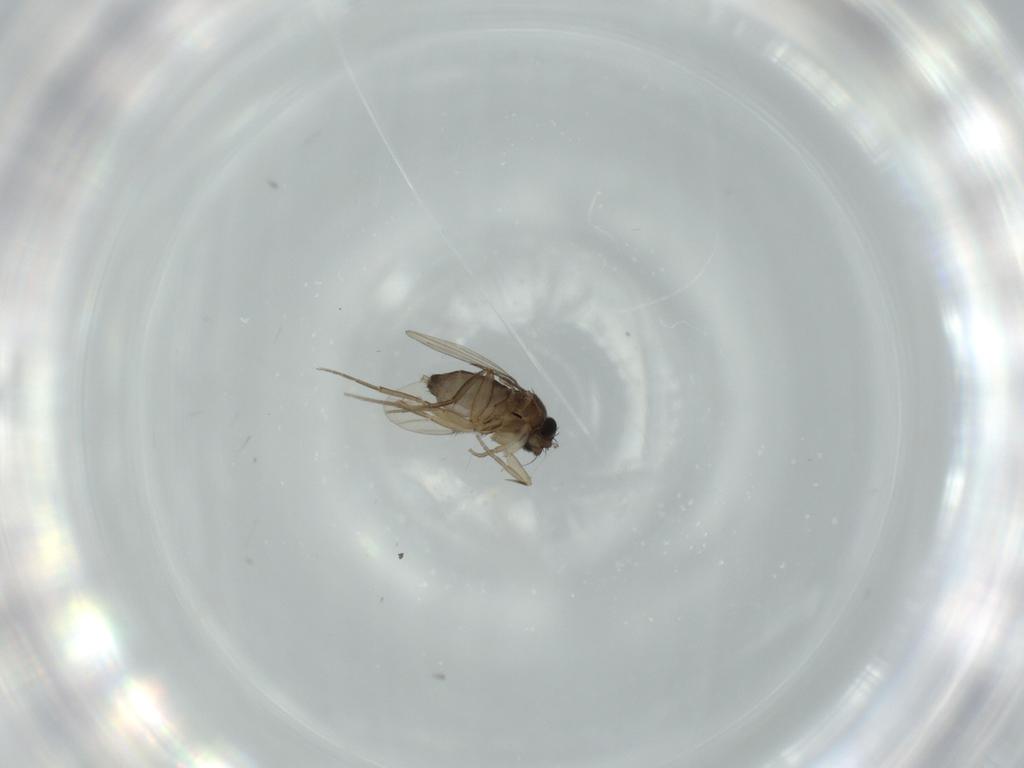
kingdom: Animalia
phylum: Arthropoda
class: Insecta
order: Diptera
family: Phoridae
